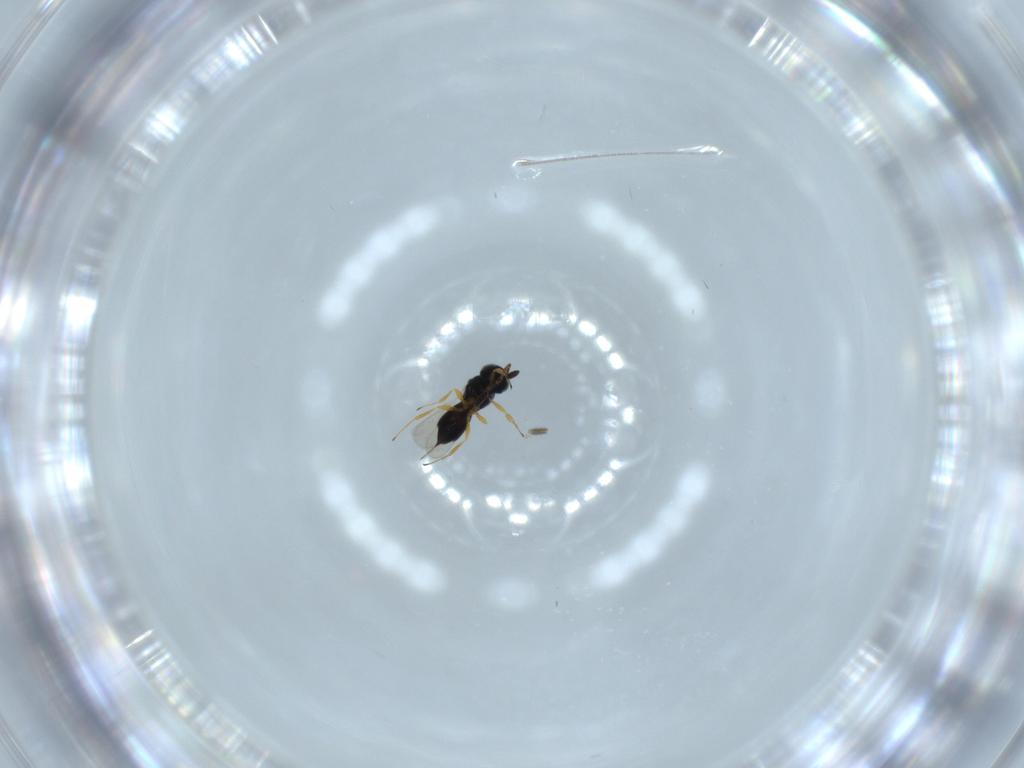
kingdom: Animalia
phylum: Arthropoda
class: Insecta
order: Hymenoptera
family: Scelionidae
